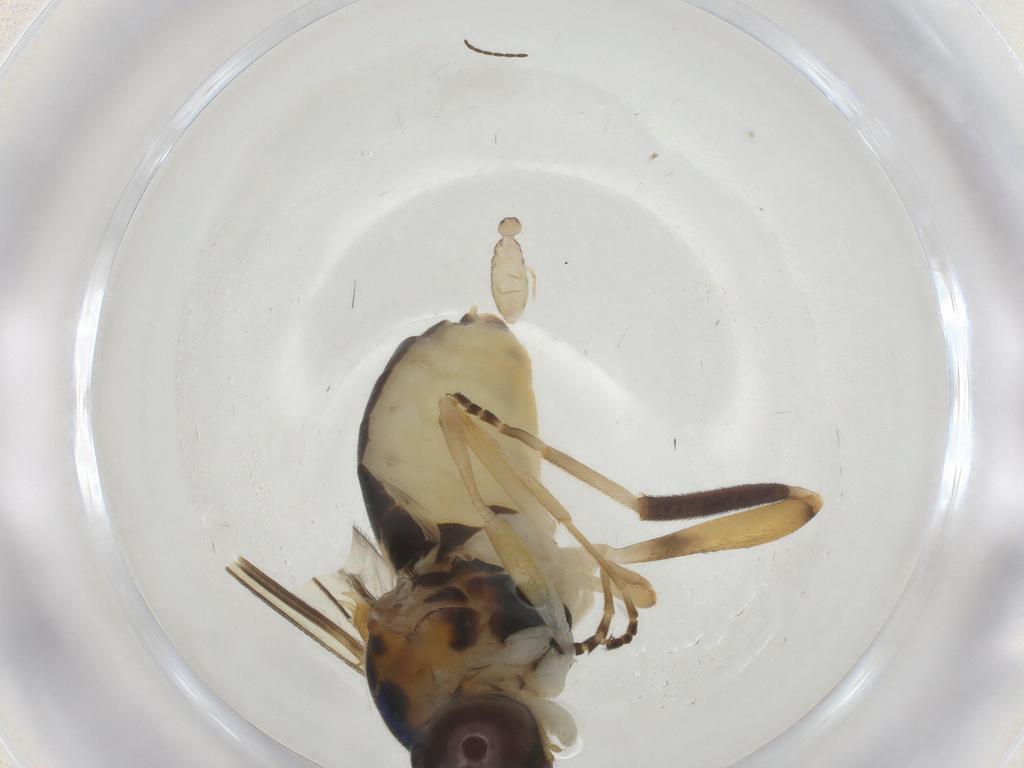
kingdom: Animalia
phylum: Arthropoda
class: Insecta
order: Diptera
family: Stratiomyidae
